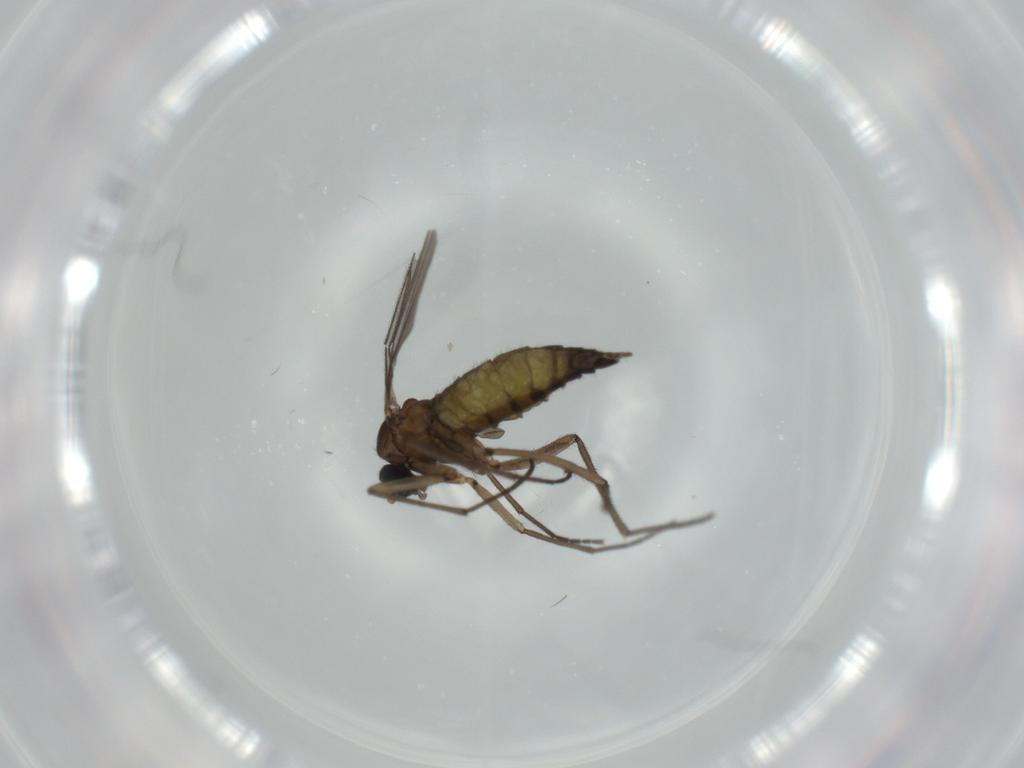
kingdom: Animalia
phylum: Arthropoda
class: Insecta
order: Diptera
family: Sciaridae
